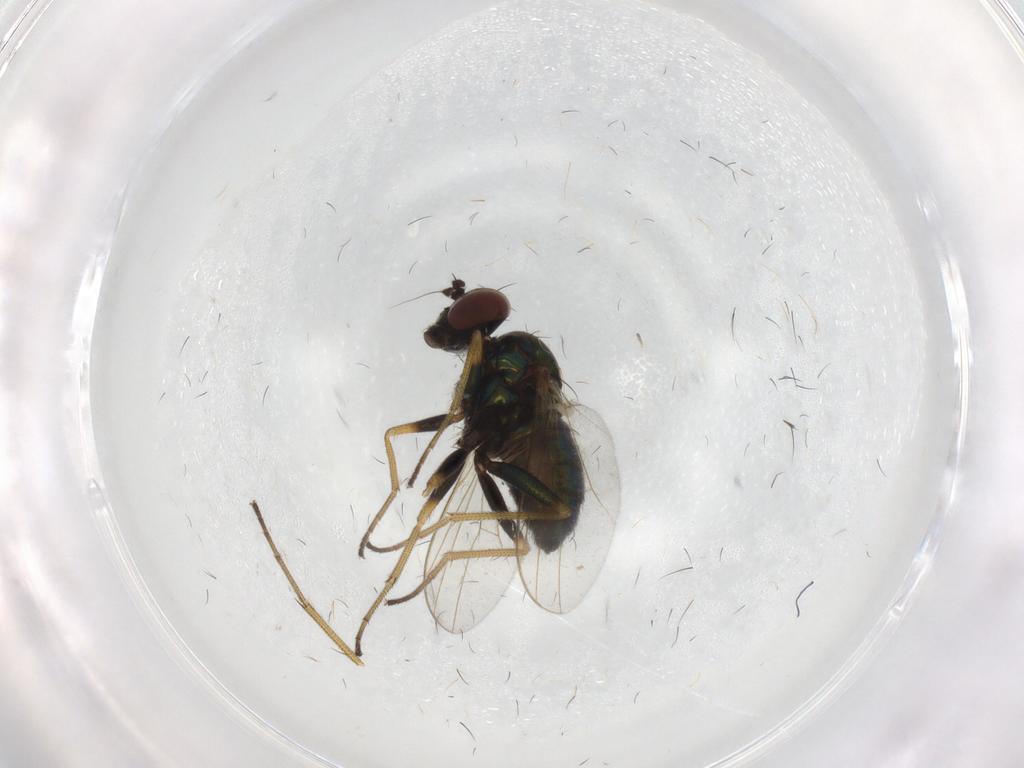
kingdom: Animalia
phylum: Arthropoda
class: Insecta
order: Diptera
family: Dolichopodidae
